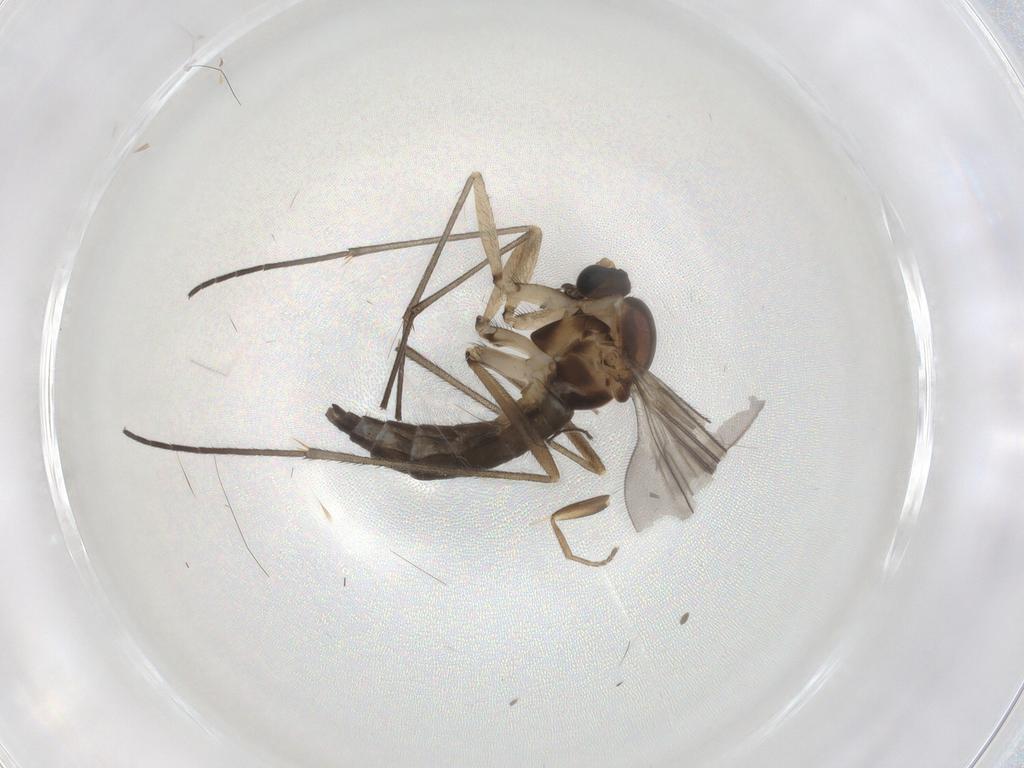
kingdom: Animalia
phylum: Arthropoda
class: Insecta
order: Diptera
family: Sciaridae
